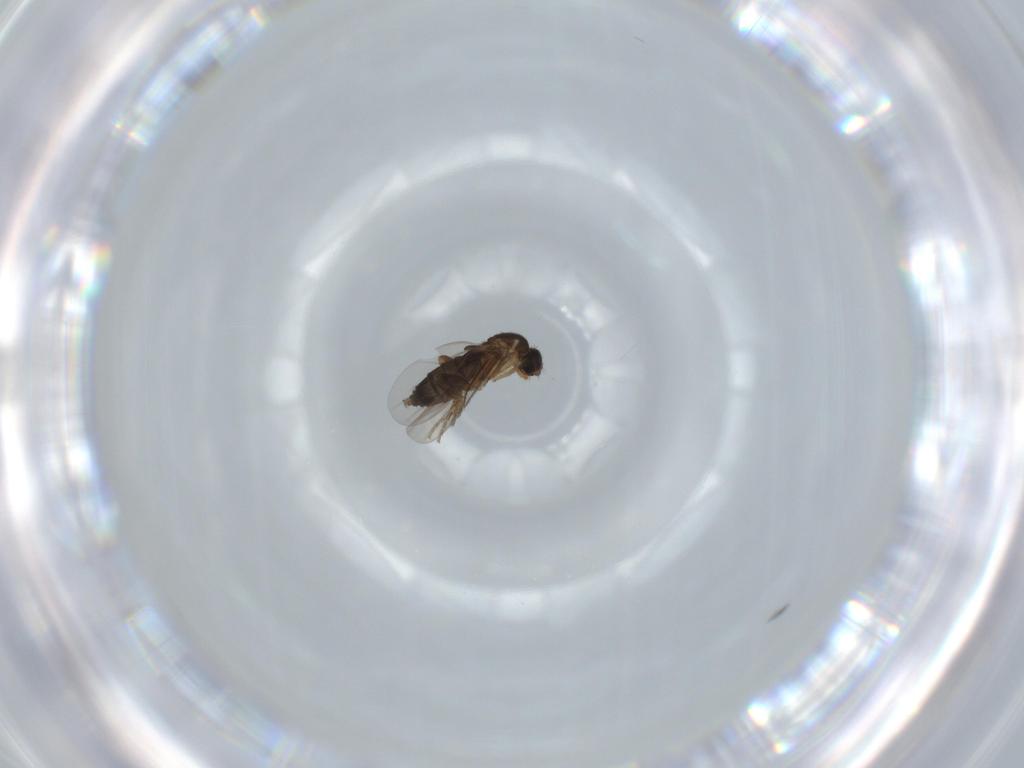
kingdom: Animalia
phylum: Arthropoda
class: Insecta
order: Diptera
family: Phoridae
